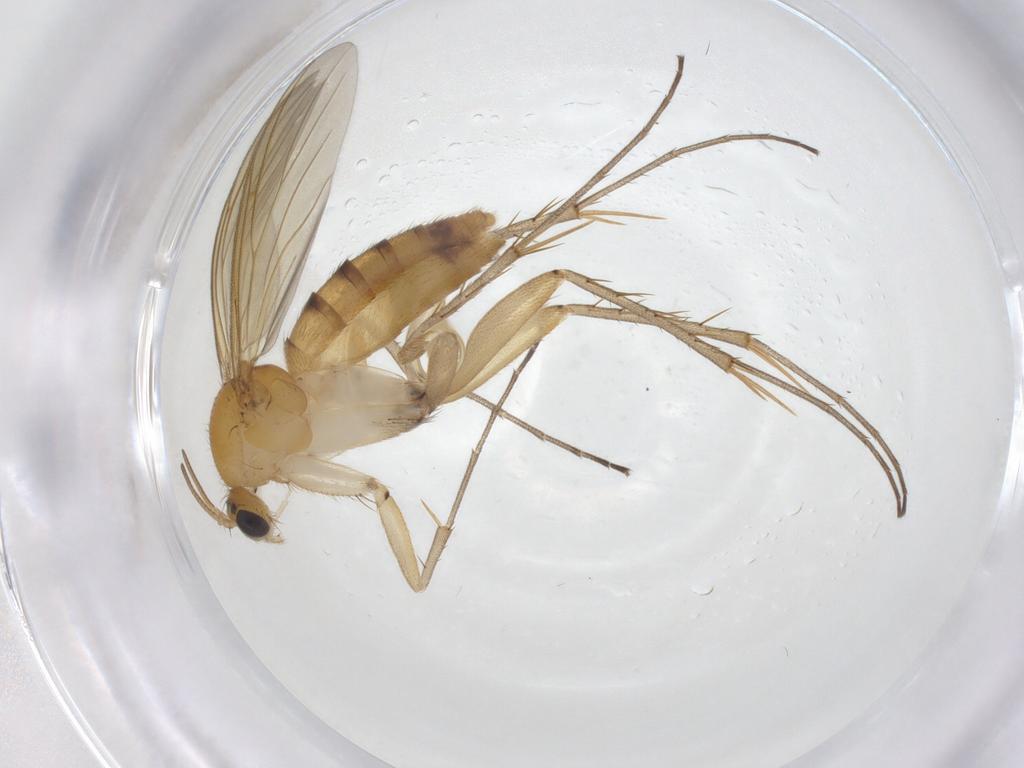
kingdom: Animalia
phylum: Arthropoda
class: Insecta
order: Diptera
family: Mycetophilidae
